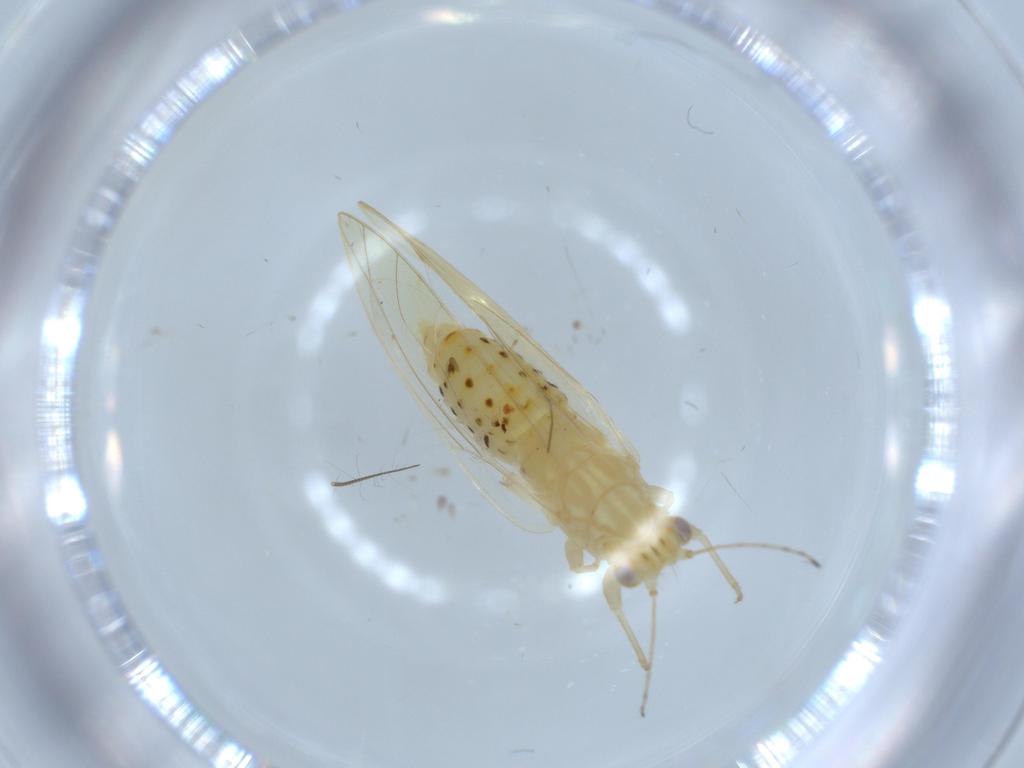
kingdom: Animalia
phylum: Arthropoda
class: Insecta
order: Hemiptera
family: Triozidae
